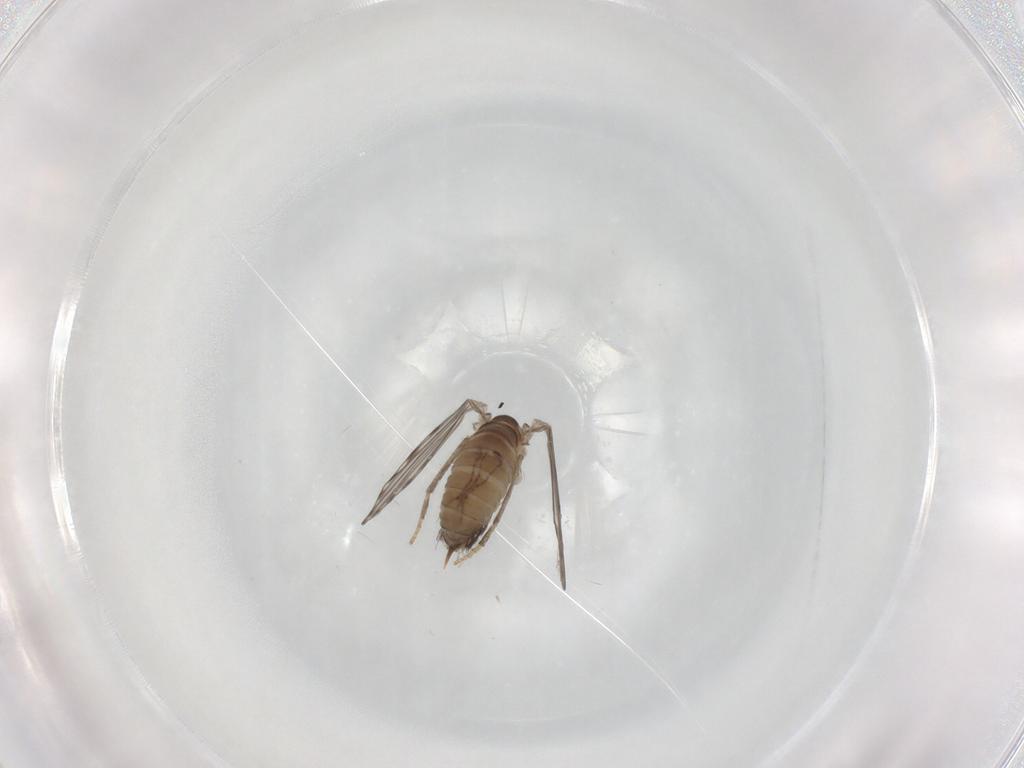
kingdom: Animalia
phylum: Arthropoda
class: Insecta
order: Diptera
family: Psychodidae
